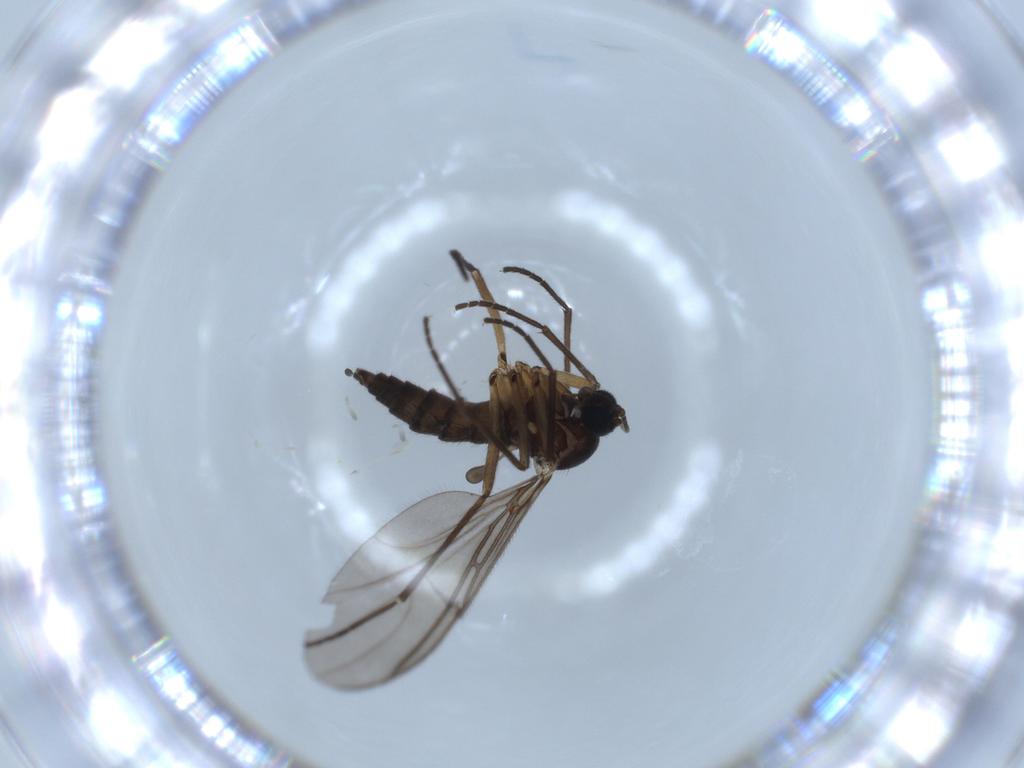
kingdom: Animalia
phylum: Arthropoda
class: Insecta
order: Diptera
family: Sciaridae
